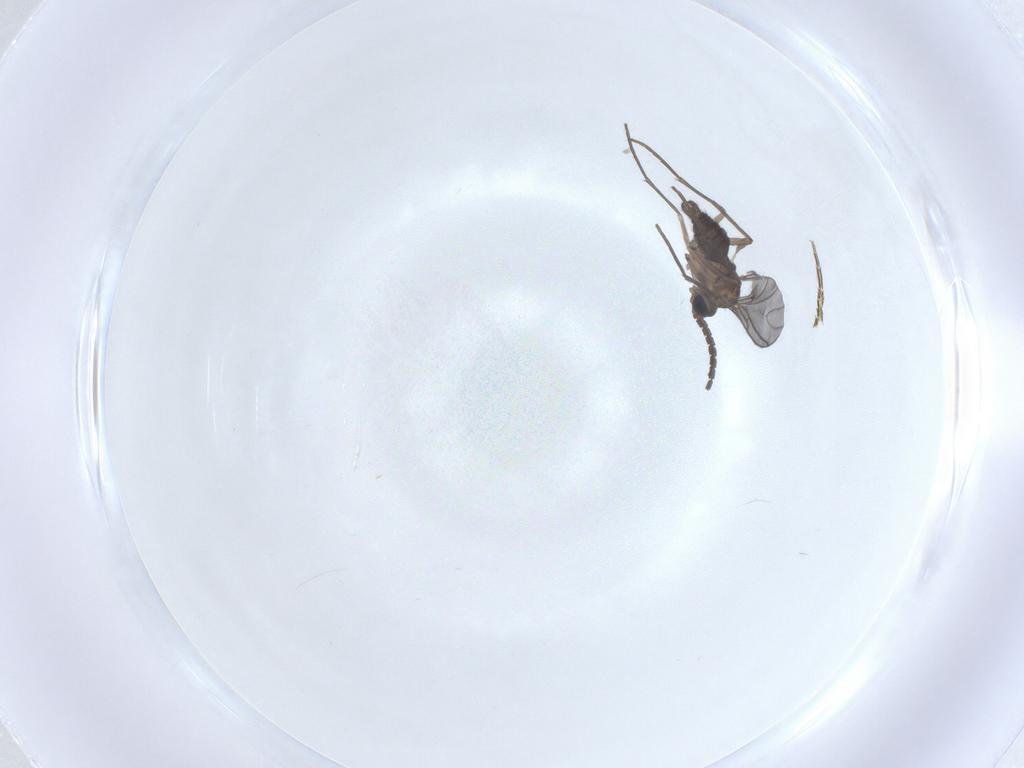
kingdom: Animalia
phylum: Arthropoda
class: Insecta
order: Diptera
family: Sciaridae
